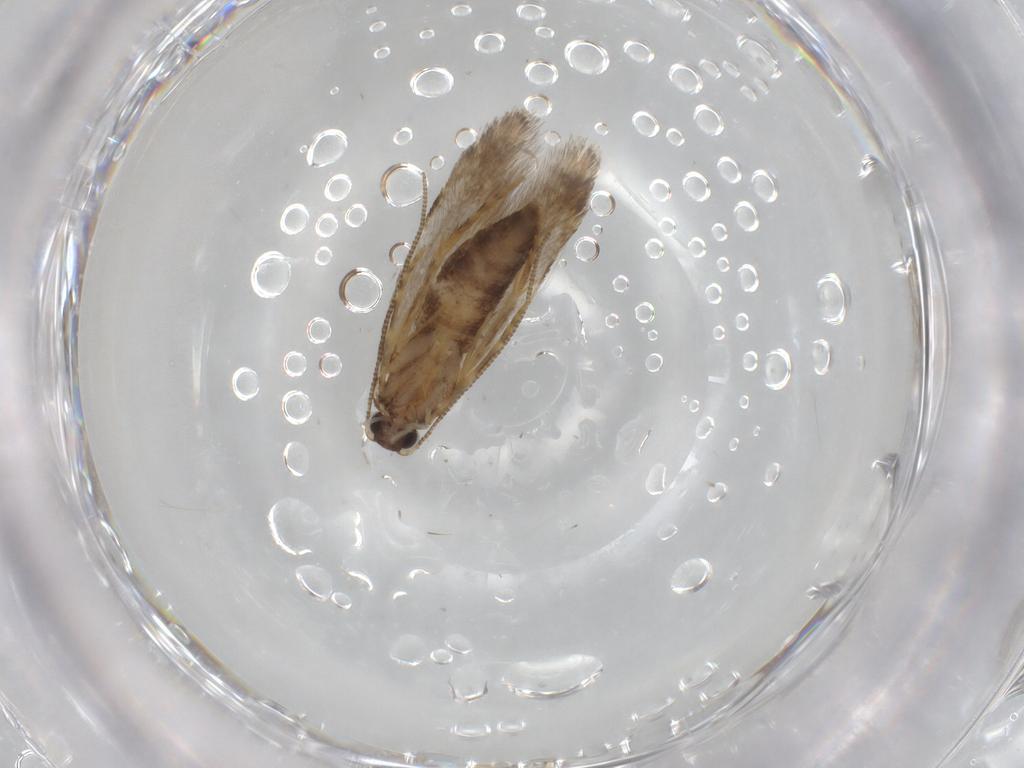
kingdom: Animalia
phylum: Arthropoda
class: Insecta
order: Lepidoptera
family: Tineidae
